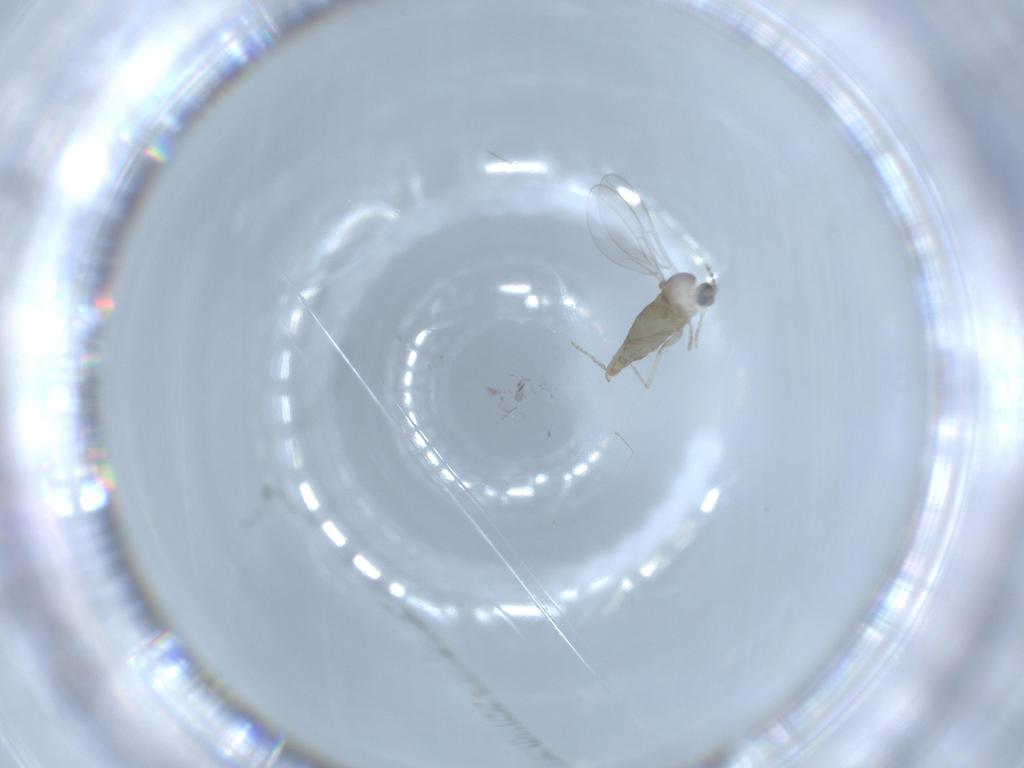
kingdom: Animalia
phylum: Arthropoda
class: Insecta
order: Diptera
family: Cecidomyiidae
